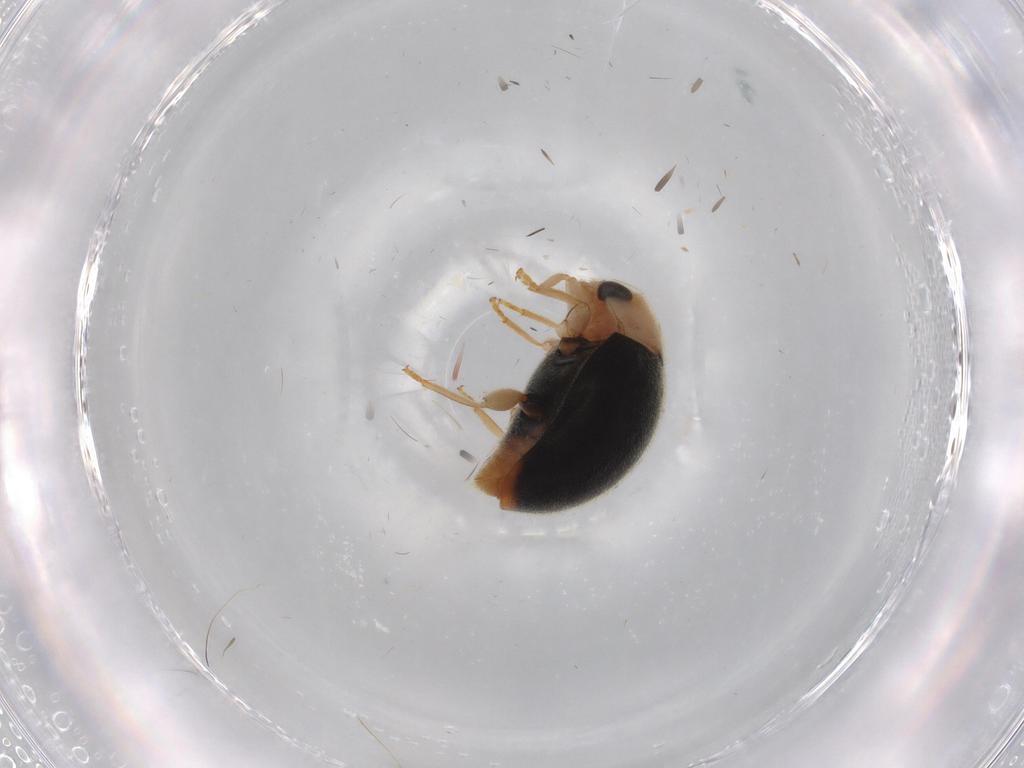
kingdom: Animalia
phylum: Arthropoda
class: Insecta
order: Coleoptera
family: Coccinellidae
